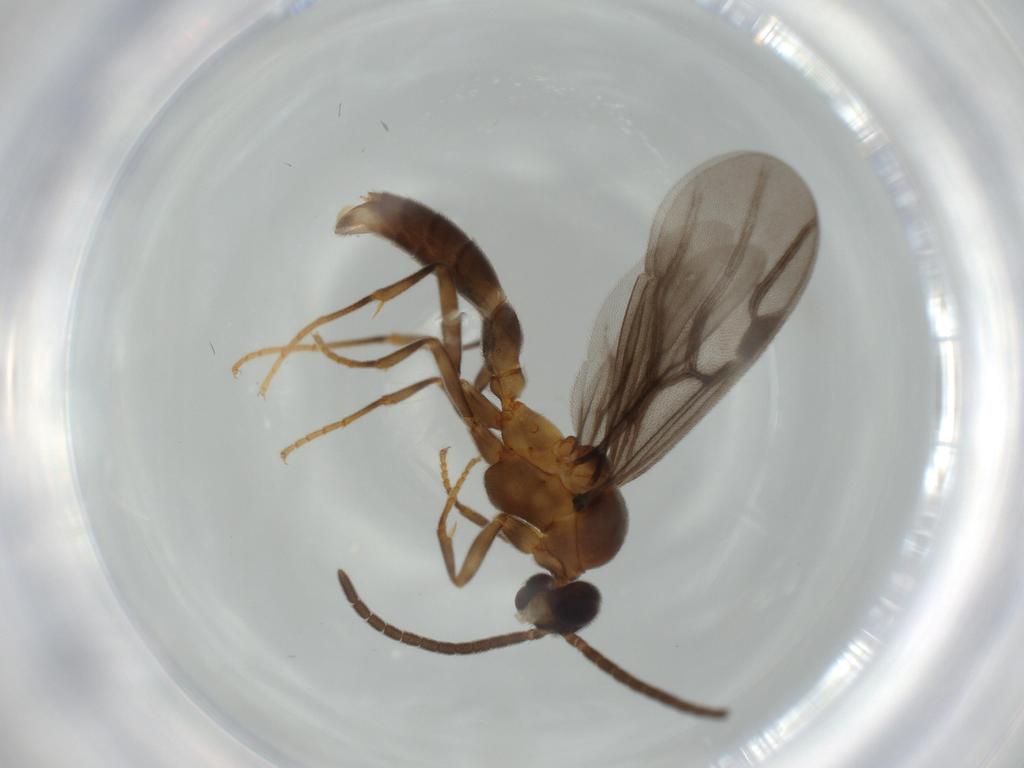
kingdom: Animalia
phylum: Arthropoda
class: Insecta
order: Hymenoptera
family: Formicidae
